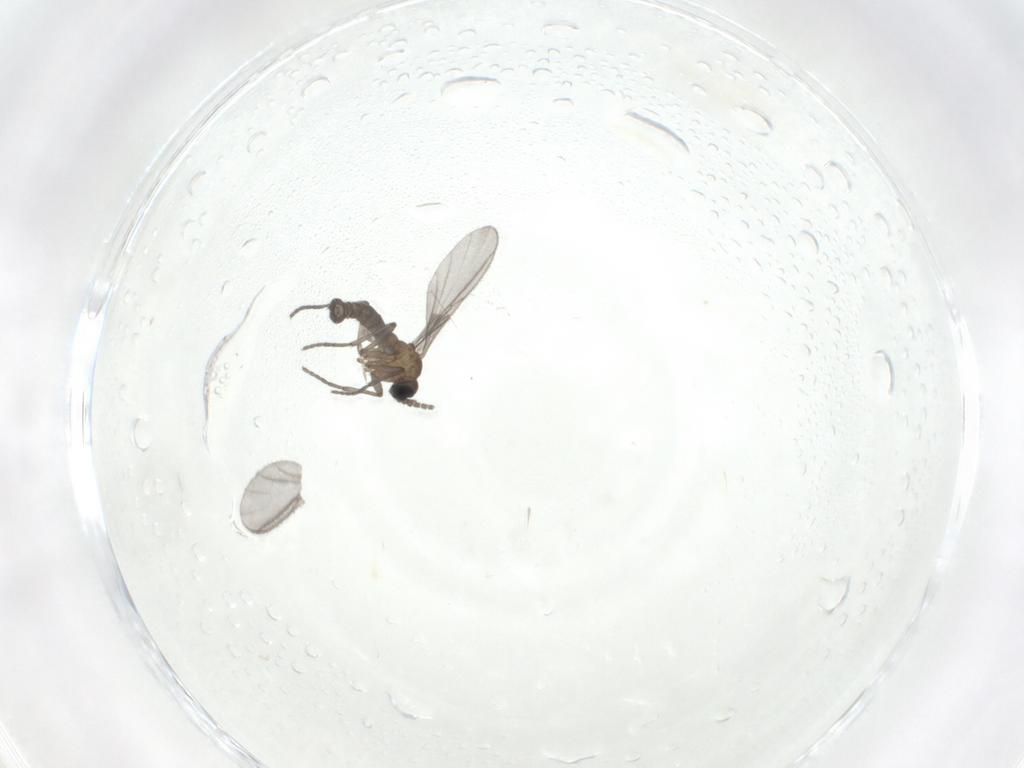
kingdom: Animalia
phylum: Arthropoda
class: Insecta
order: Diptera
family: Sciaridae
